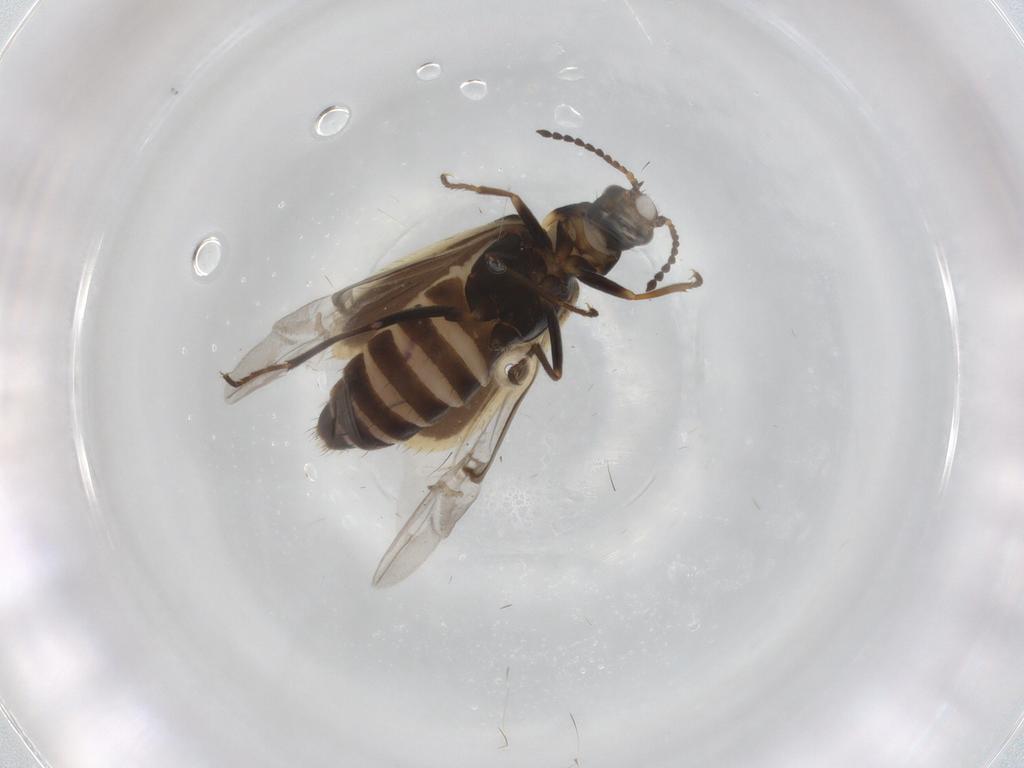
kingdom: Animalia
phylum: Arthropoda
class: Insecta
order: Coleoptera
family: Dasytidae
